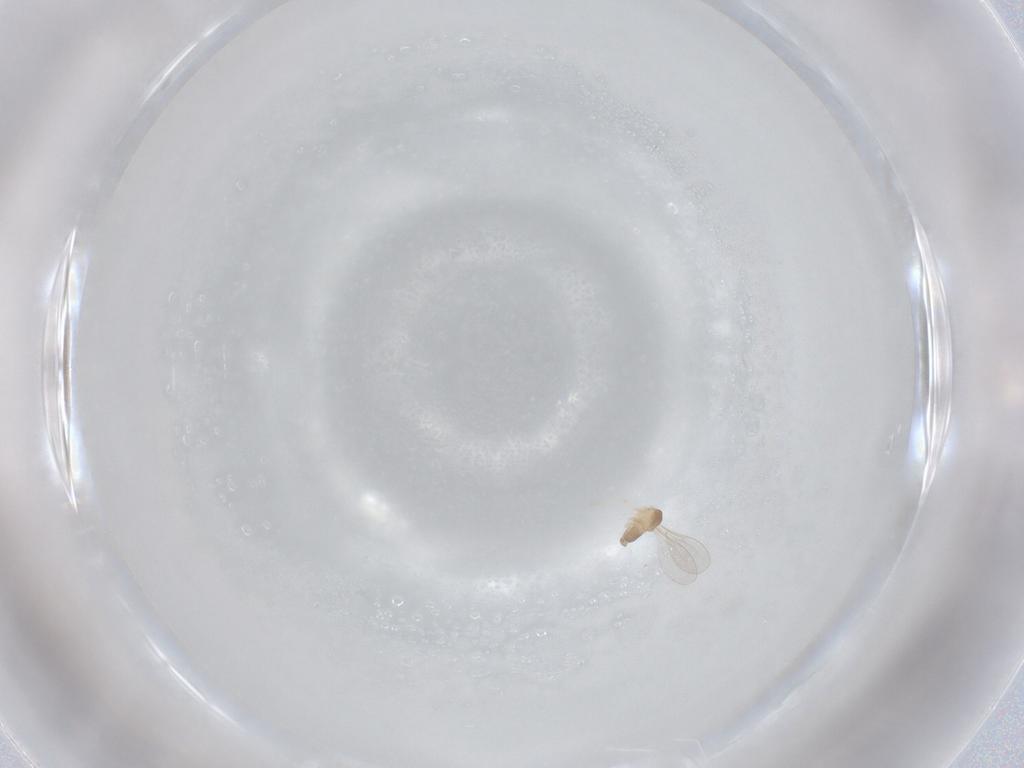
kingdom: Animalia
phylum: Arthropoda
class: Insecta
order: Diptera
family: Cecidomyiidae
